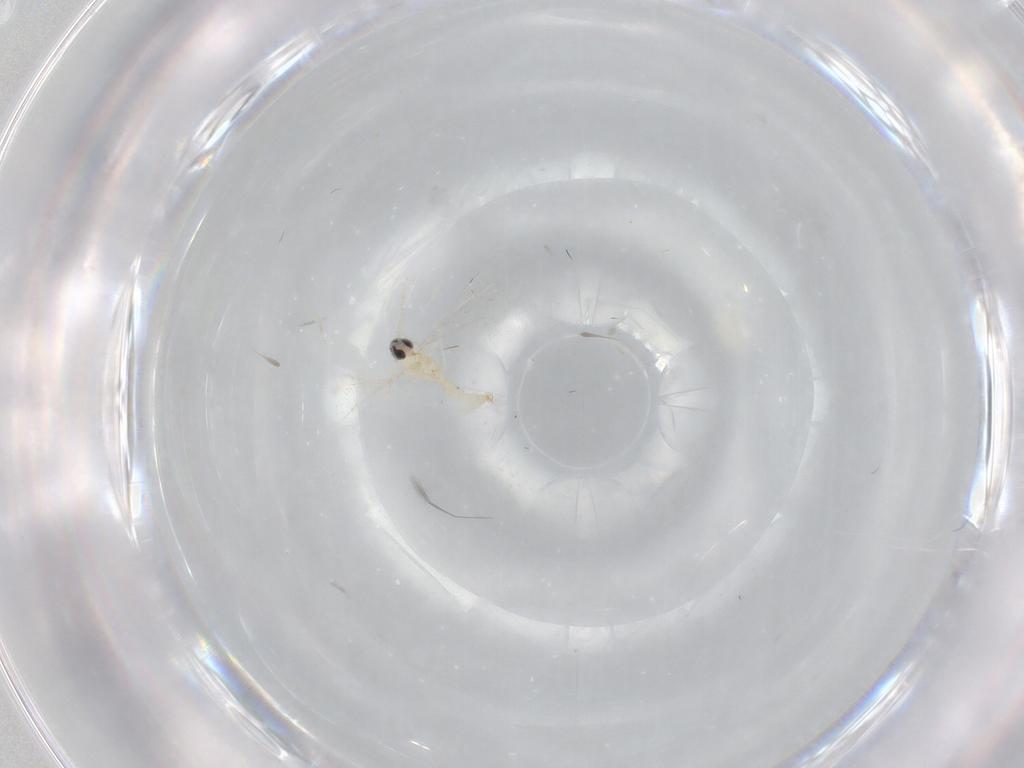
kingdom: Animalia
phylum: Arthropoda
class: Insecta
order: Diptera
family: Cecidomyiidae
